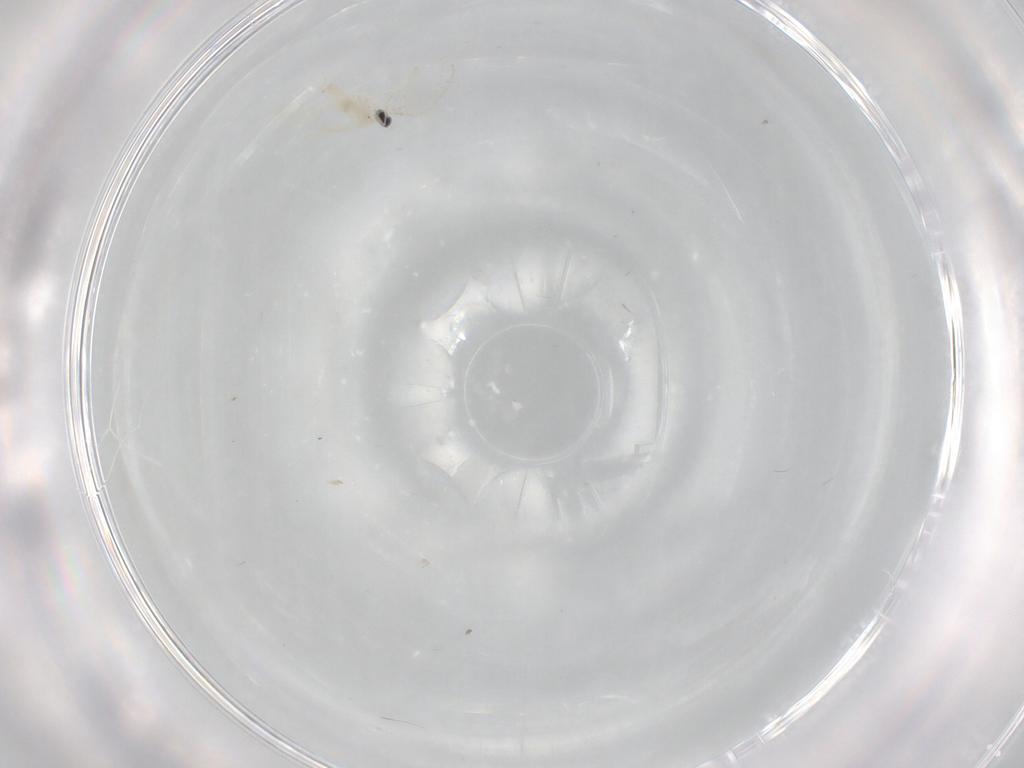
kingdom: Animalia
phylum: Arthropoda
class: Insecta
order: Diptera
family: Cecidomyiidae
